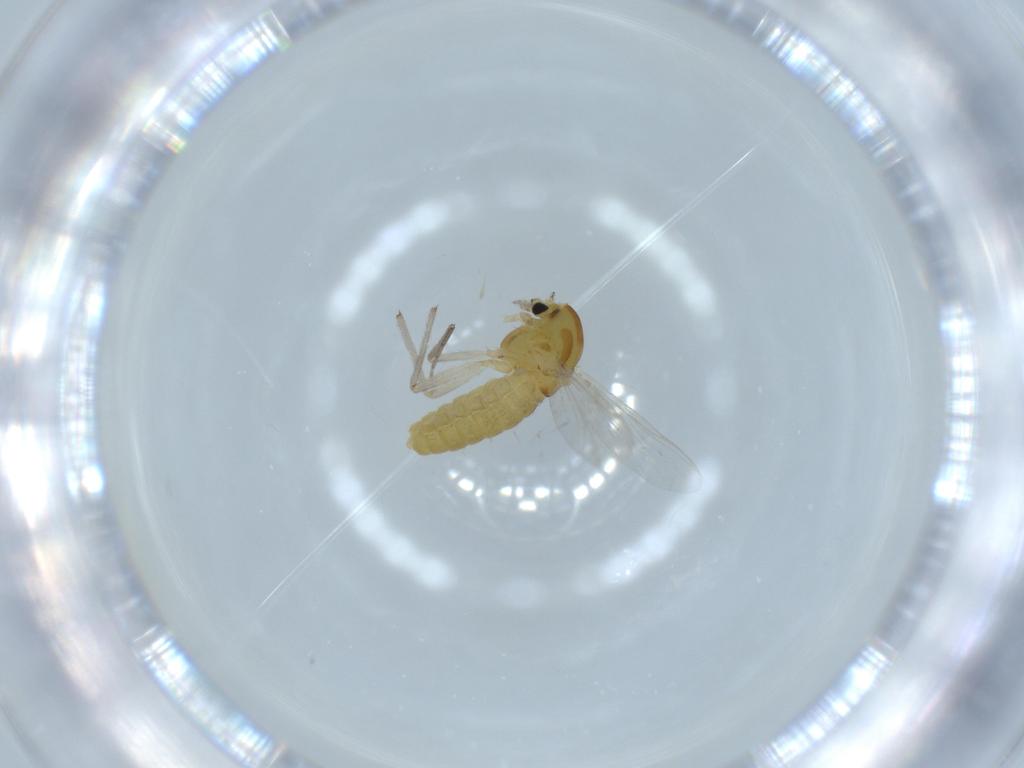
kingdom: Animalia
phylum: Arthropoda
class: Insecta
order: Diptera
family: Chironomidae
